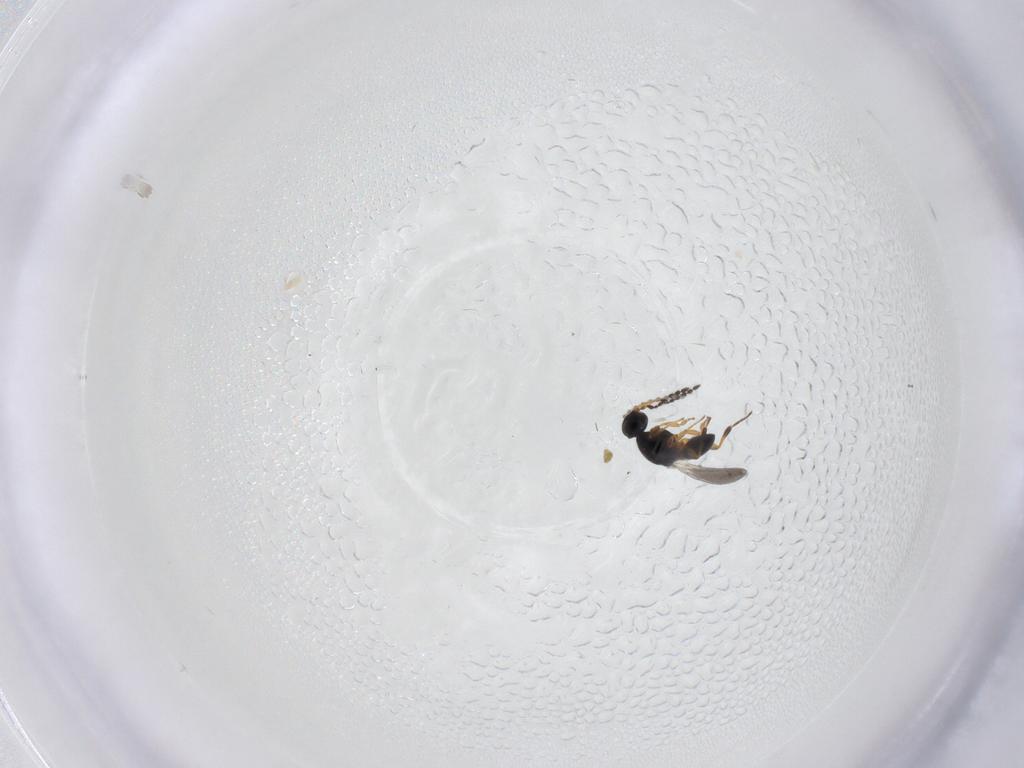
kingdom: Animalia
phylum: Arthropoda
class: Insecta
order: Hymenoptera
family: Platygastridae
